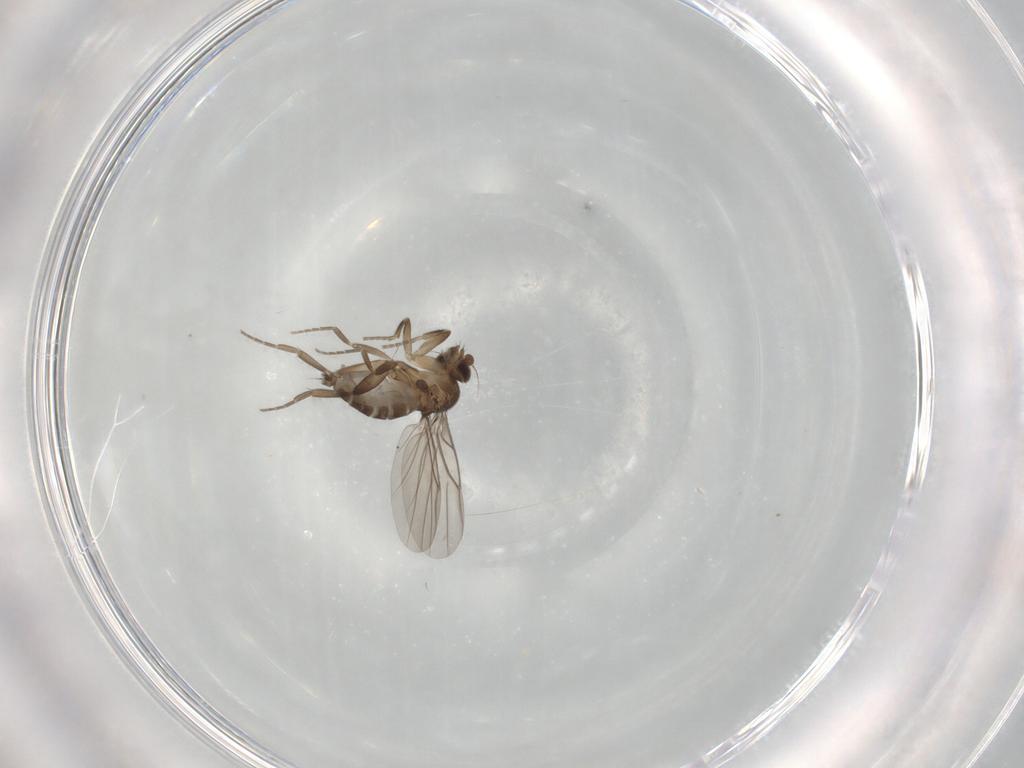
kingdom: Animalia
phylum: Arthropoda
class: Insecta
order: Diptera
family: Phoridae
